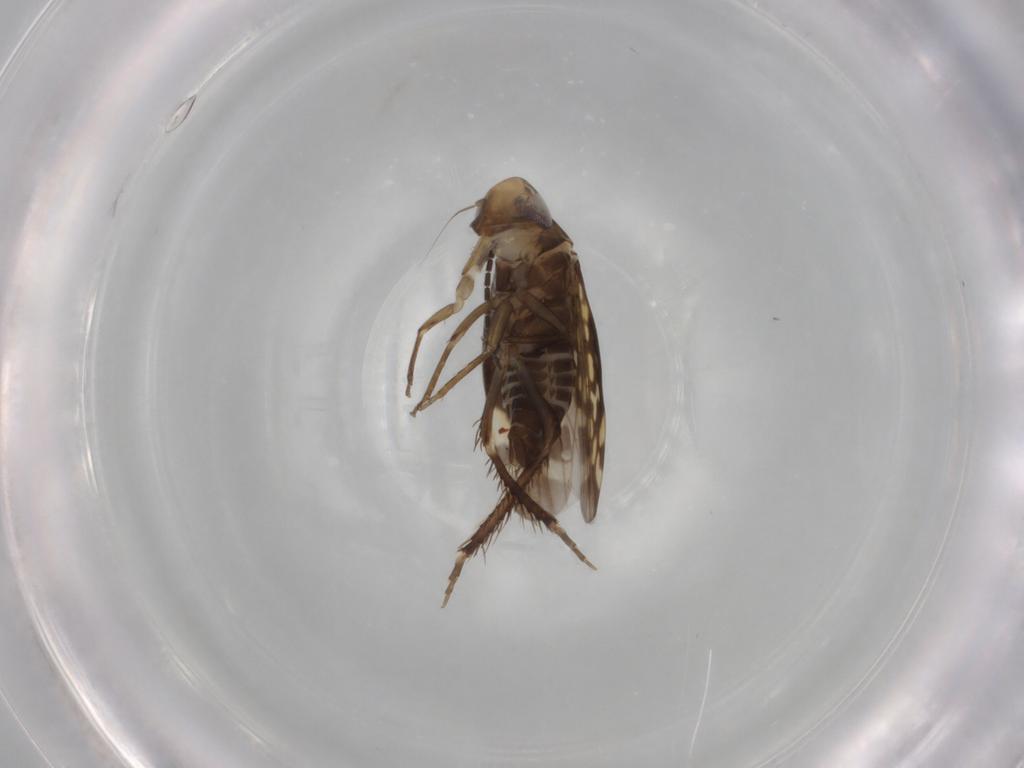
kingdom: Animalia
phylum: Arthropoda
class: Insecta
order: Hemiptera
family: Cicadellidae
